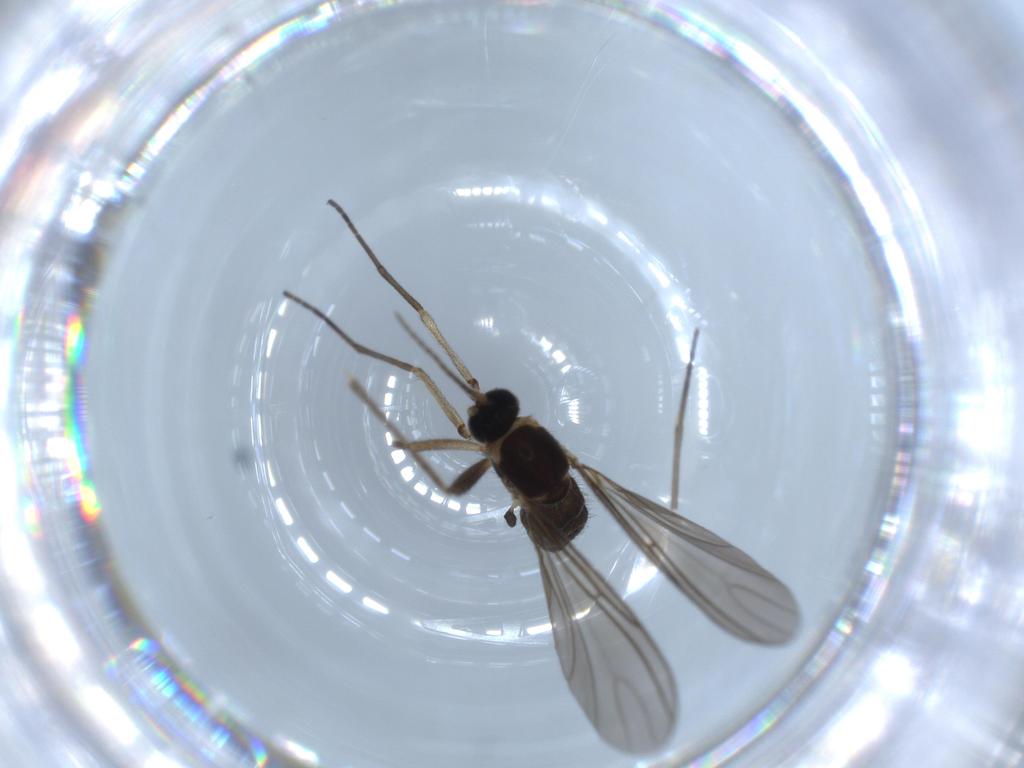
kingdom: Animalia
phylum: Arthropoda
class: Insecta
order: Diptera
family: Sciaridae
